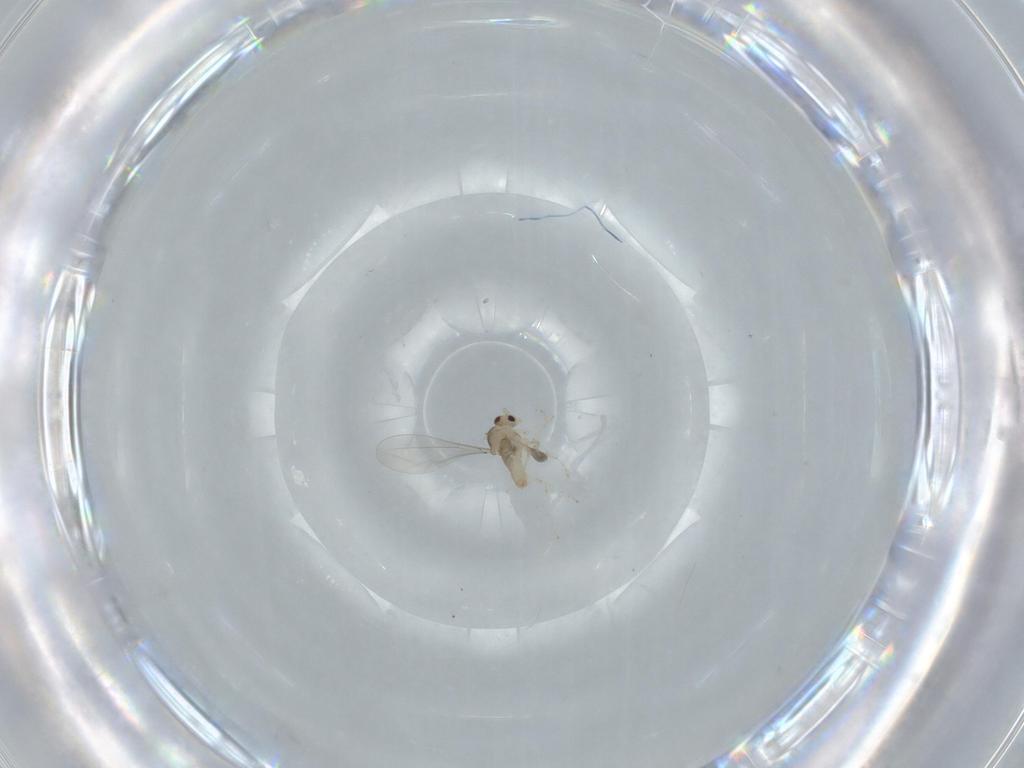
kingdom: Animalia
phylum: Arthropoda
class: Insecta
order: Diptera
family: Cecidomyiidae
